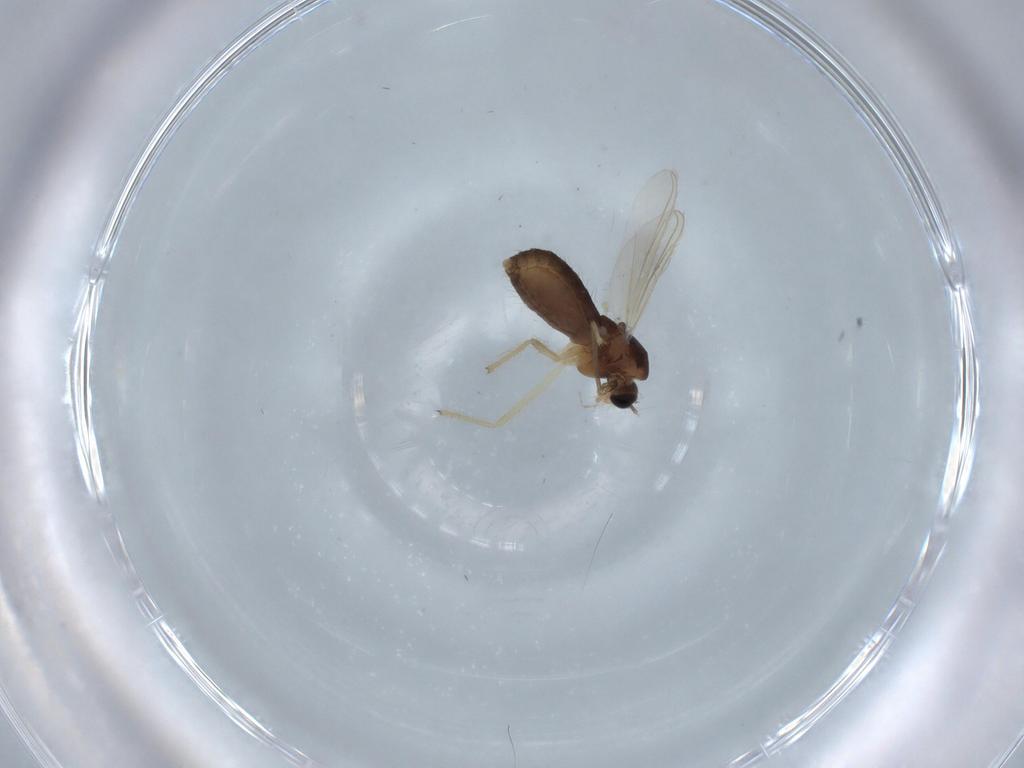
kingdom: Animalia
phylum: Arthropoda
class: Insecta
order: Diptera
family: Chironomidae
